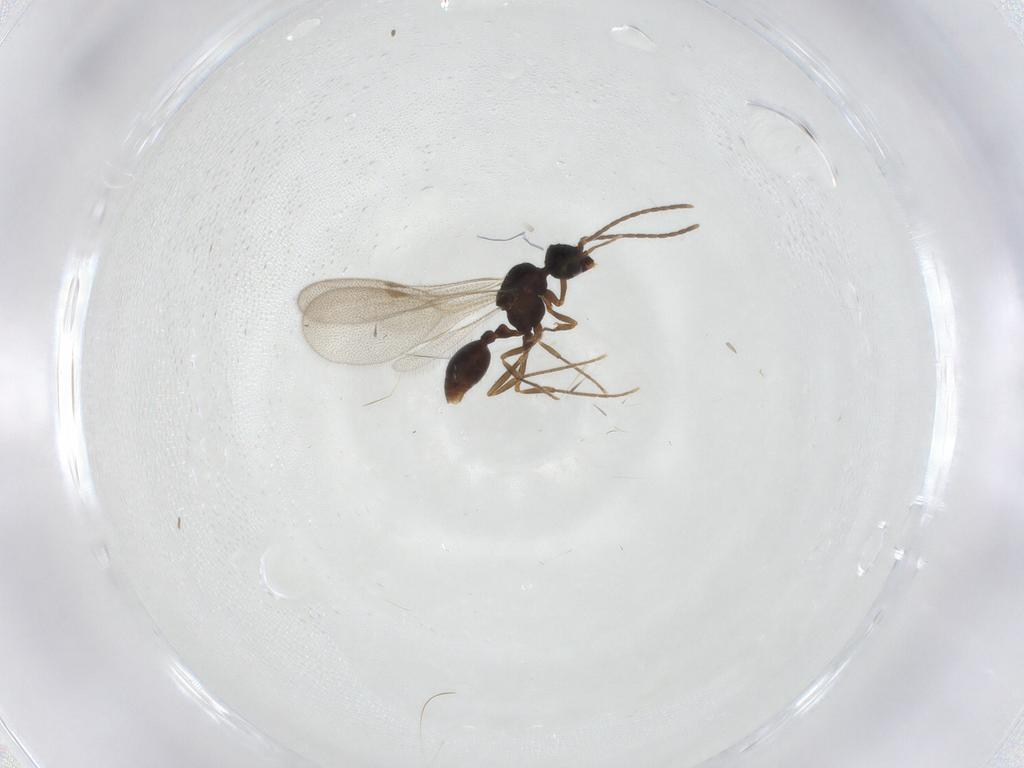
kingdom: Animalia
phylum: Arthropoda
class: Insecta
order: Hymenoptera
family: Formicidae
